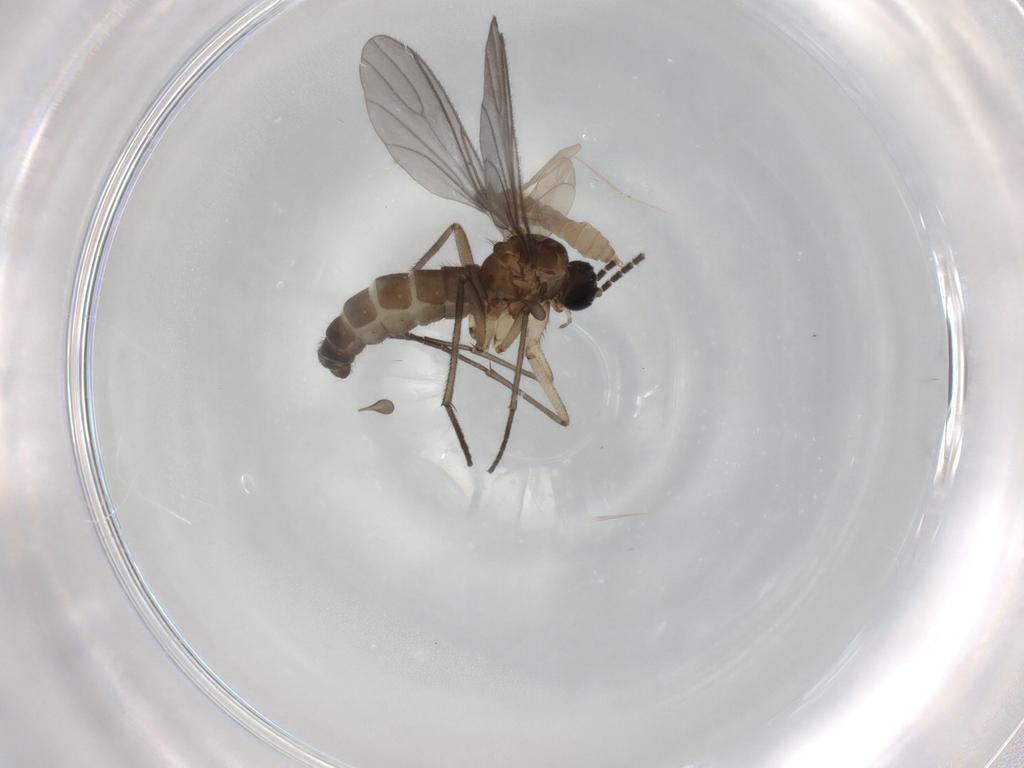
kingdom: Animalia
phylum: Arthropoda
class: Insecta
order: Diptera
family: Sciaridae
